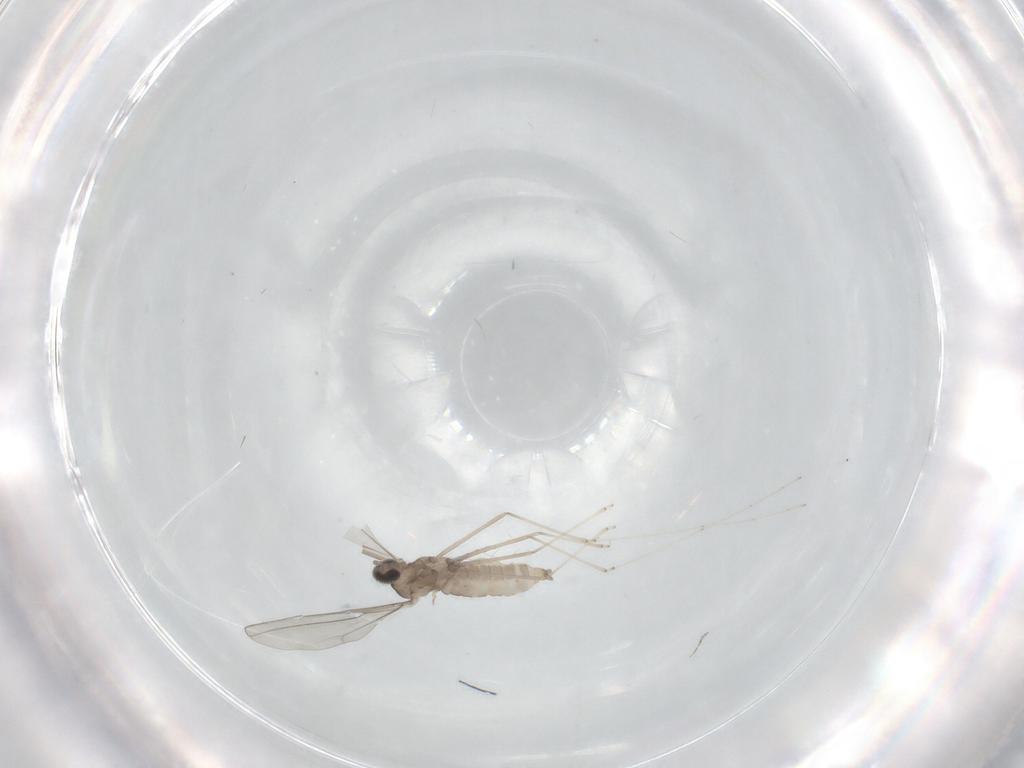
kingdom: Animalia
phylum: Arthropoda
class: Insecta
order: Diptera
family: Cecidomyiidae
